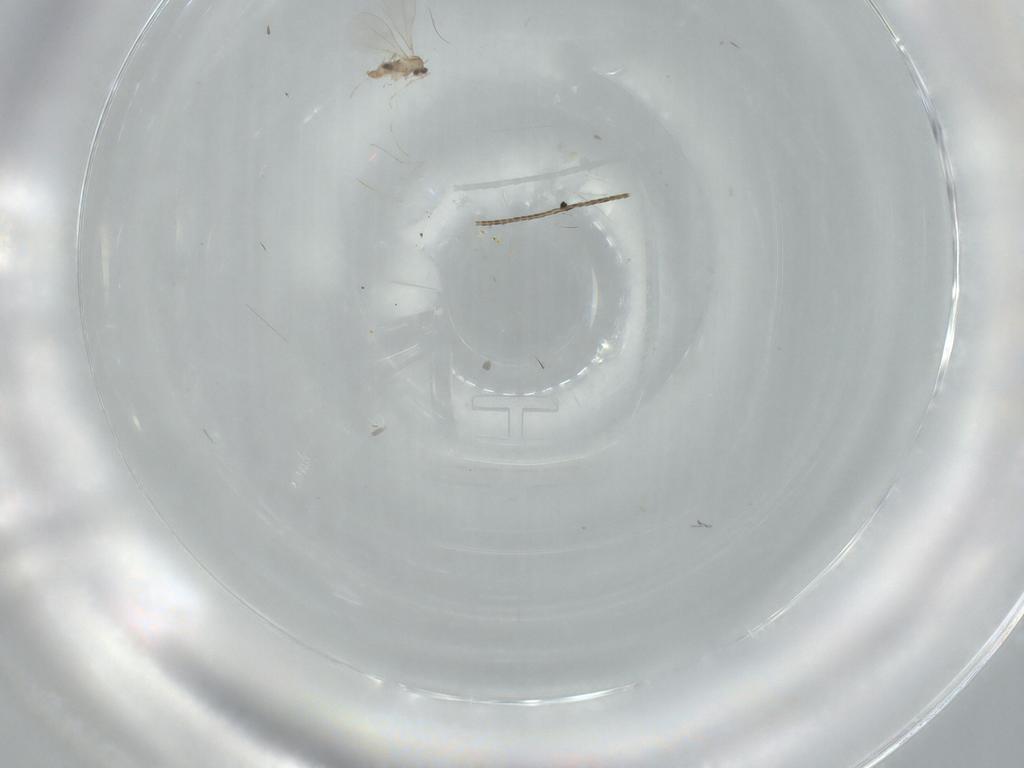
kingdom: Animalia
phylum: Arthropoda
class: Insecta
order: Diptera
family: Cecidomyiidae
